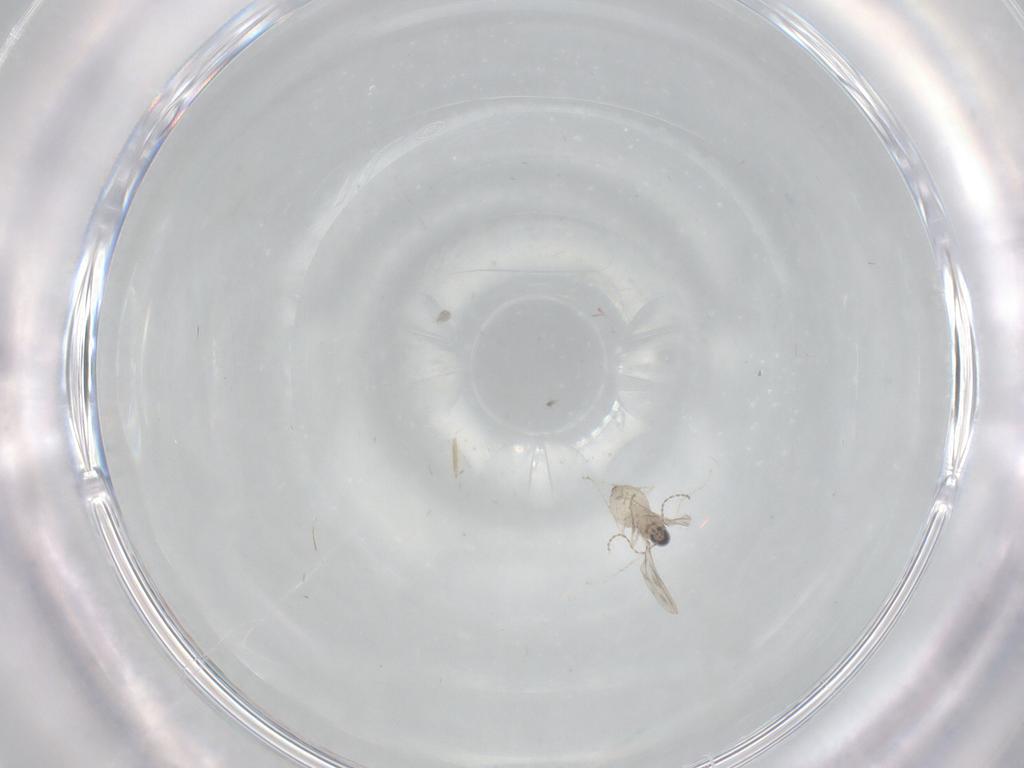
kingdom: Animalia
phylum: Arthropoda
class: Insecta
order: Diptera
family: Cecidomyiidae
